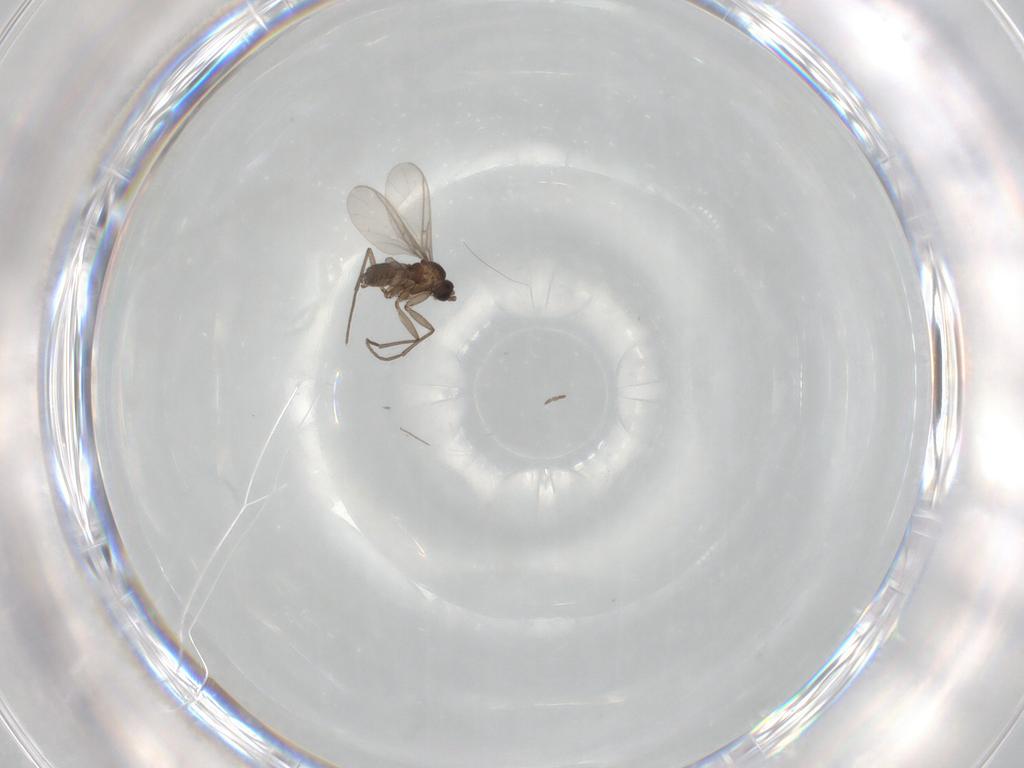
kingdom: Animalia
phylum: Arthropoda
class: Insecta
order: Diptera
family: Sciaridae
